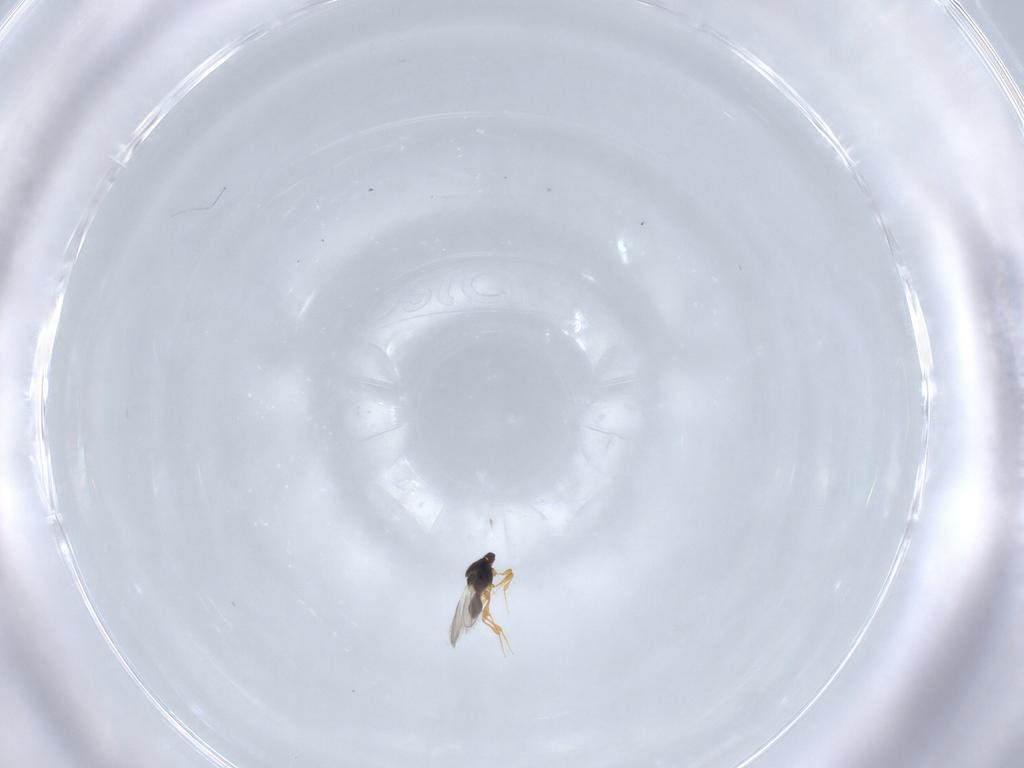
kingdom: Animalia
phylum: Arthropoda
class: Insecta
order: Hymenoptera
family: Platygastridae
